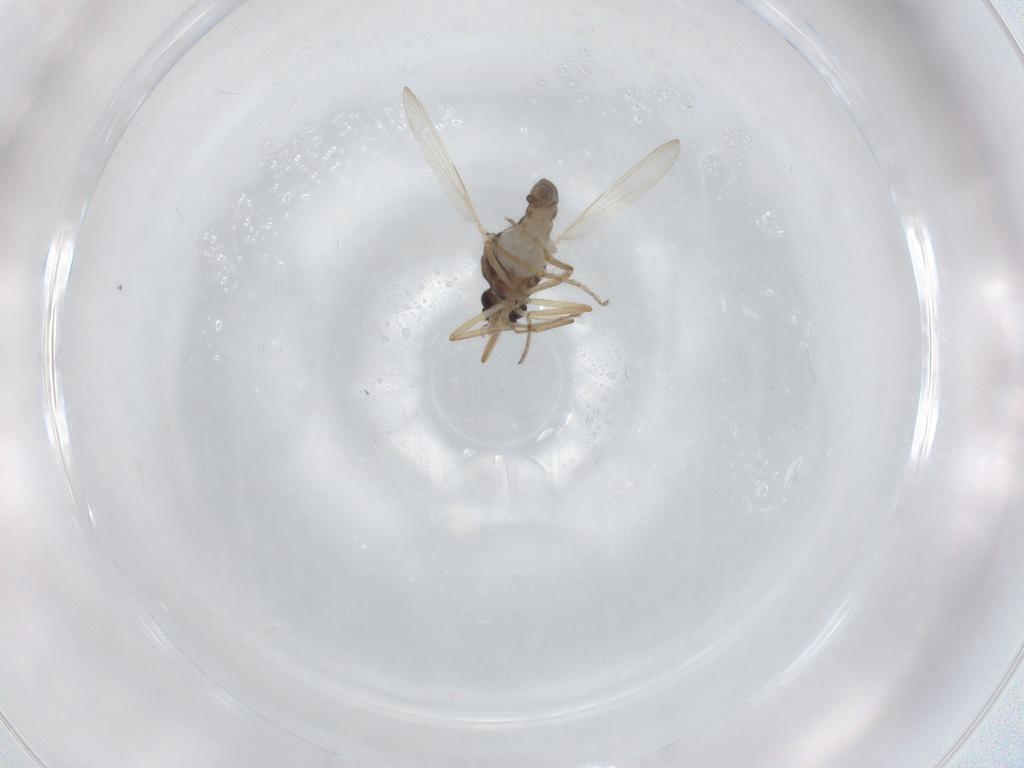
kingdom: Animalia
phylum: Arthropoda
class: Insecta
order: Diptera
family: Ceratopogonidae
